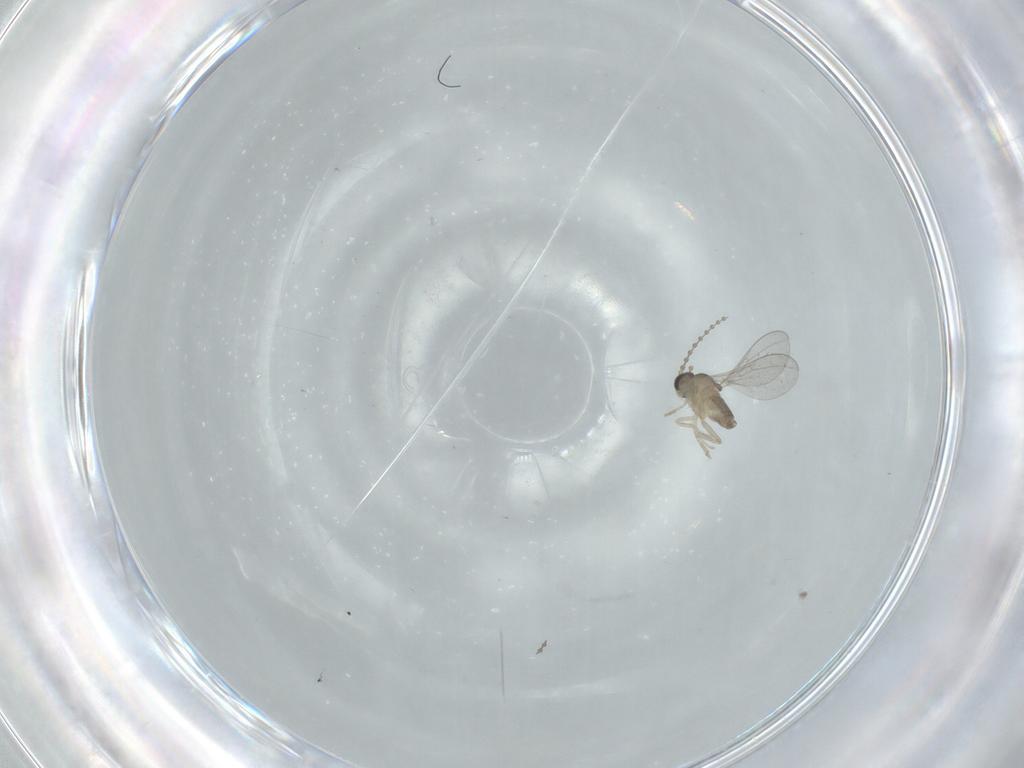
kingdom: Animalia
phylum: Arthropoda
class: Insecta
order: Diptera
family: Cecidomyiidae
